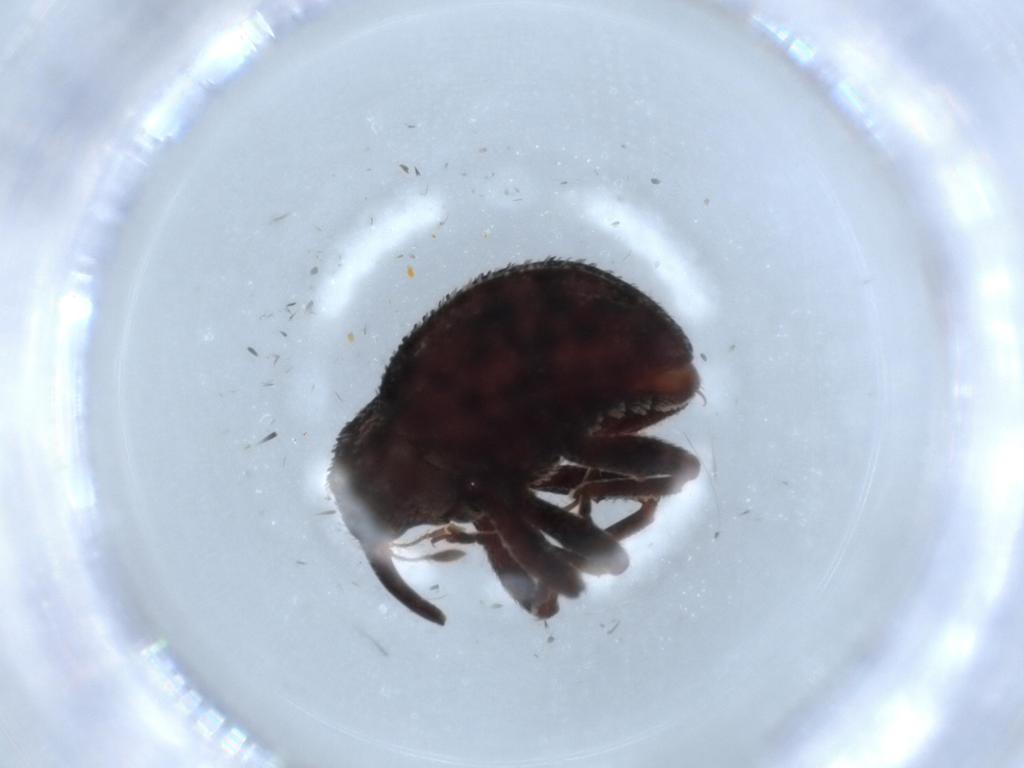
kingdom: Animalia
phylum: Arthropoda
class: Insecta
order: Coleoptera
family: Curculionidae
